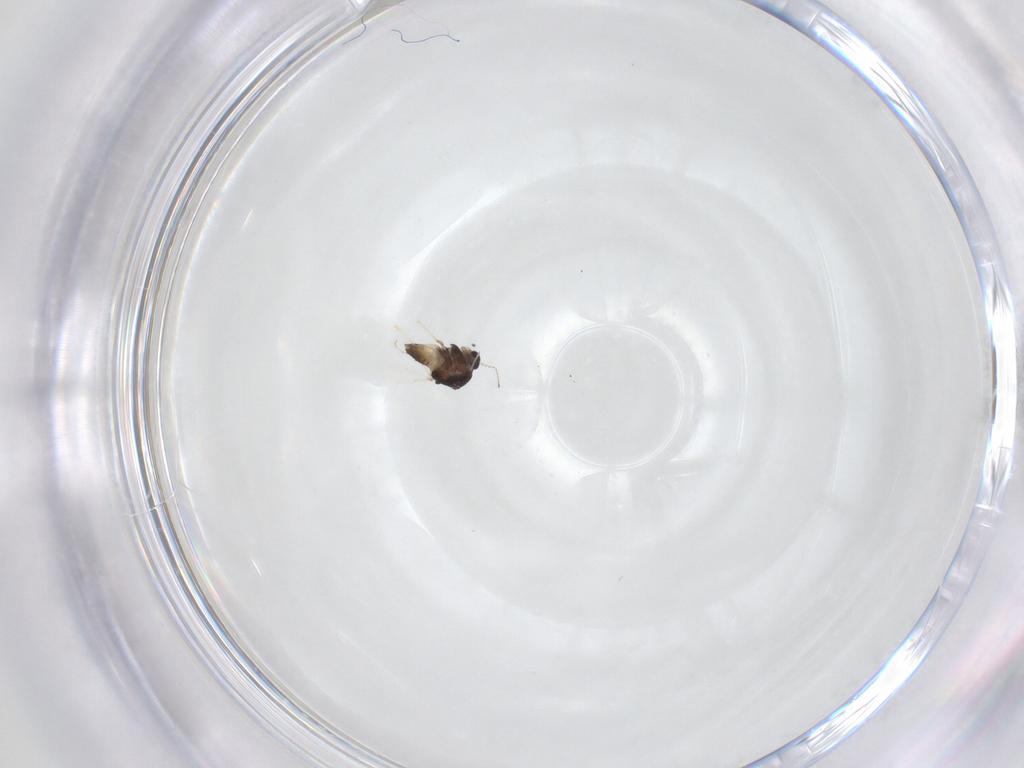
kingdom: Animalia
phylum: Arthropoda
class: Insecta
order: Diptera
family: Chironomidae
